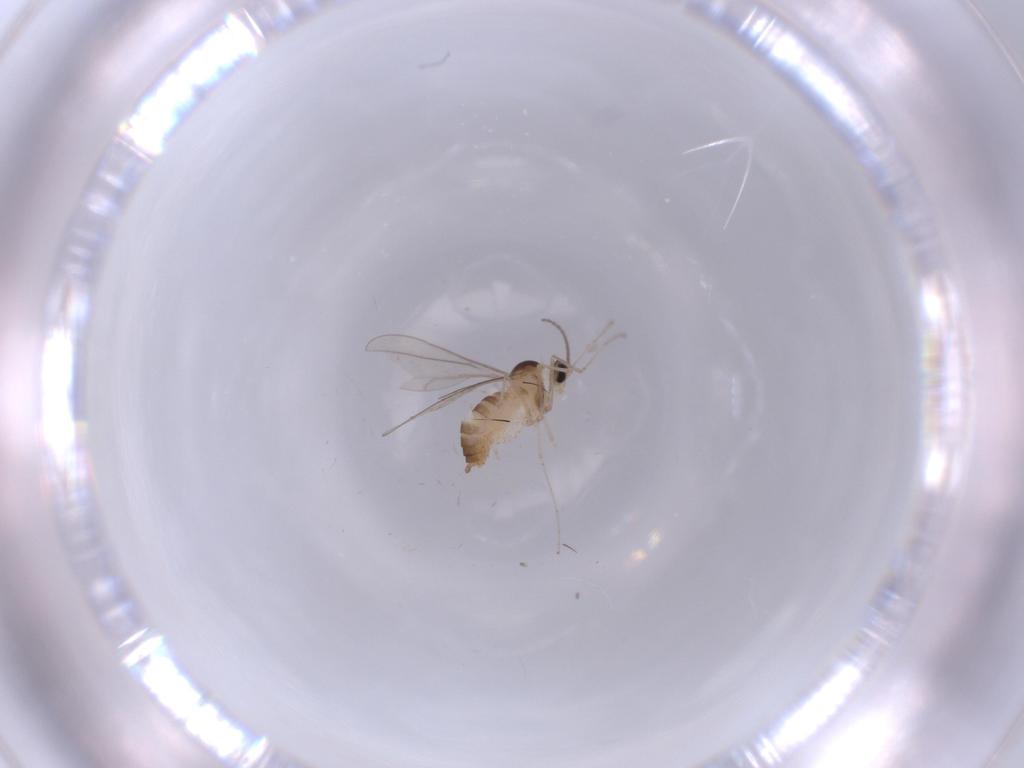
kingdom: Animalia
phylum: Arthropoda
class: Insecta
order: Diptera
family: Cecidomyiidae
